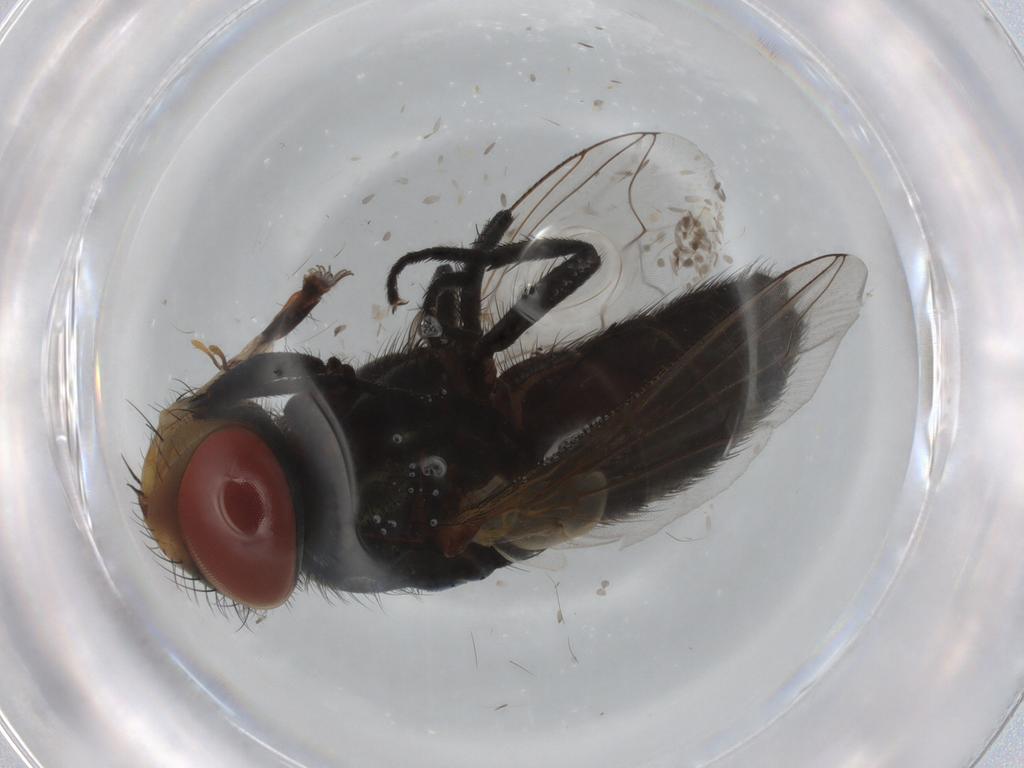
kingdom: Animalia
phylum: Arthropoda
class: Insecta
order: Diptera
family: Sarcophagidae
